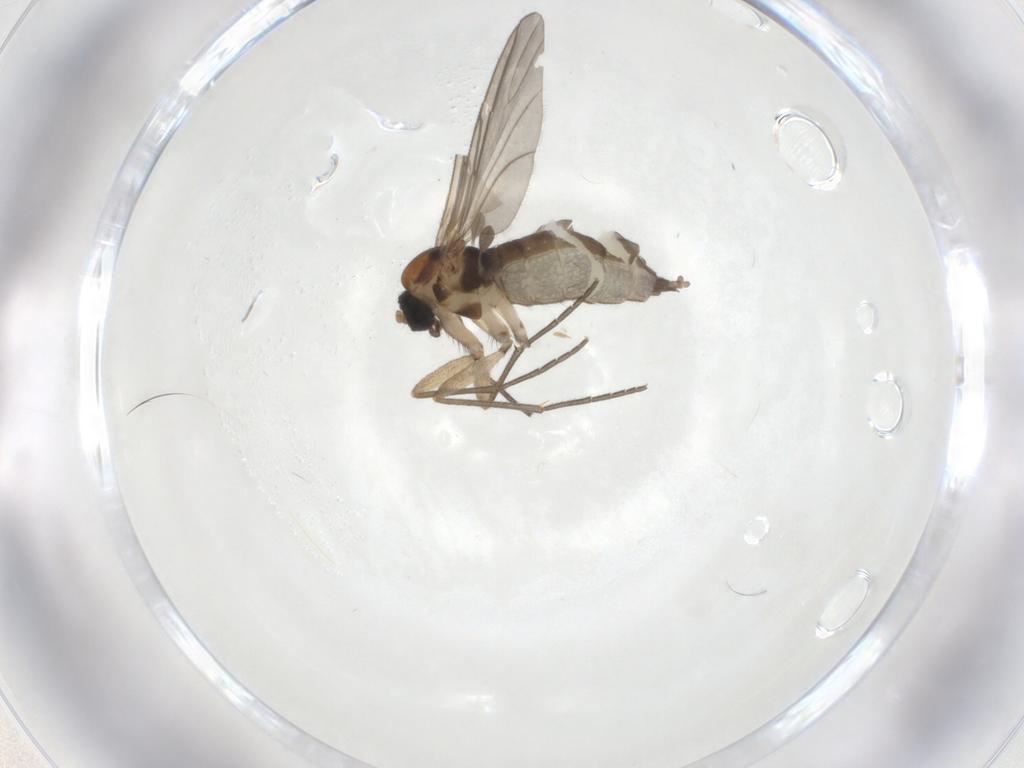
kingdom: Animalia
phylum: Arthropoda
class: Insecta
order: Diptera
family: Sciaridae
